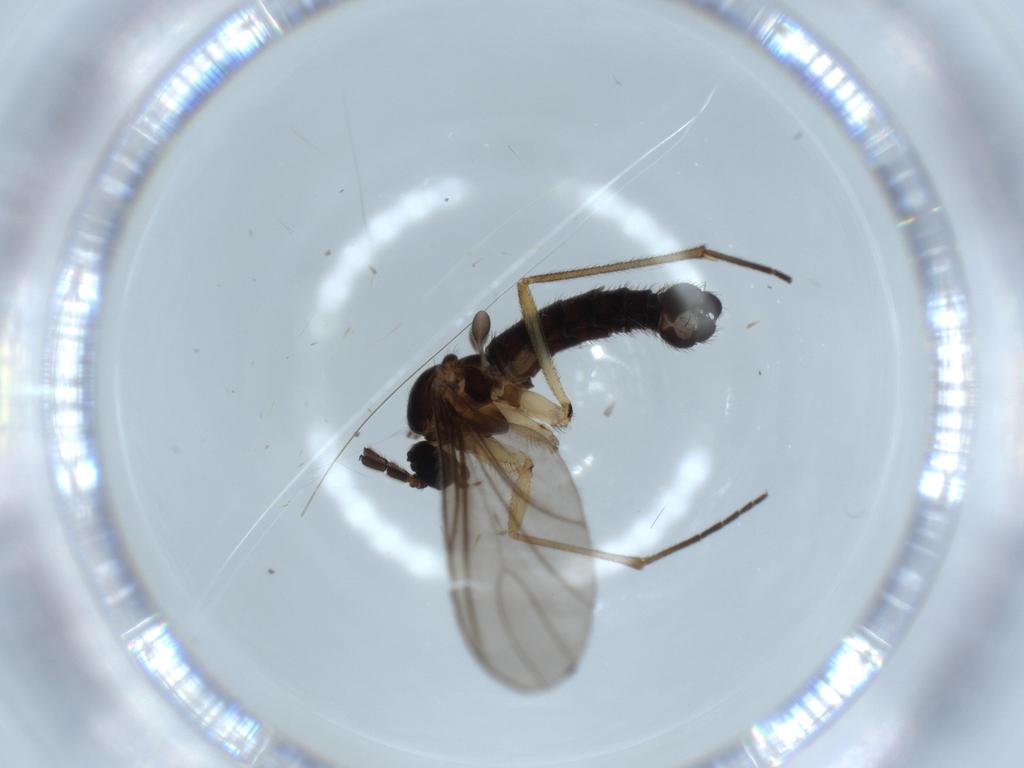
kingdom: Animalia
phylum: Arthropoda
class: Insecta
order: Diptera
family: Sciaridae
